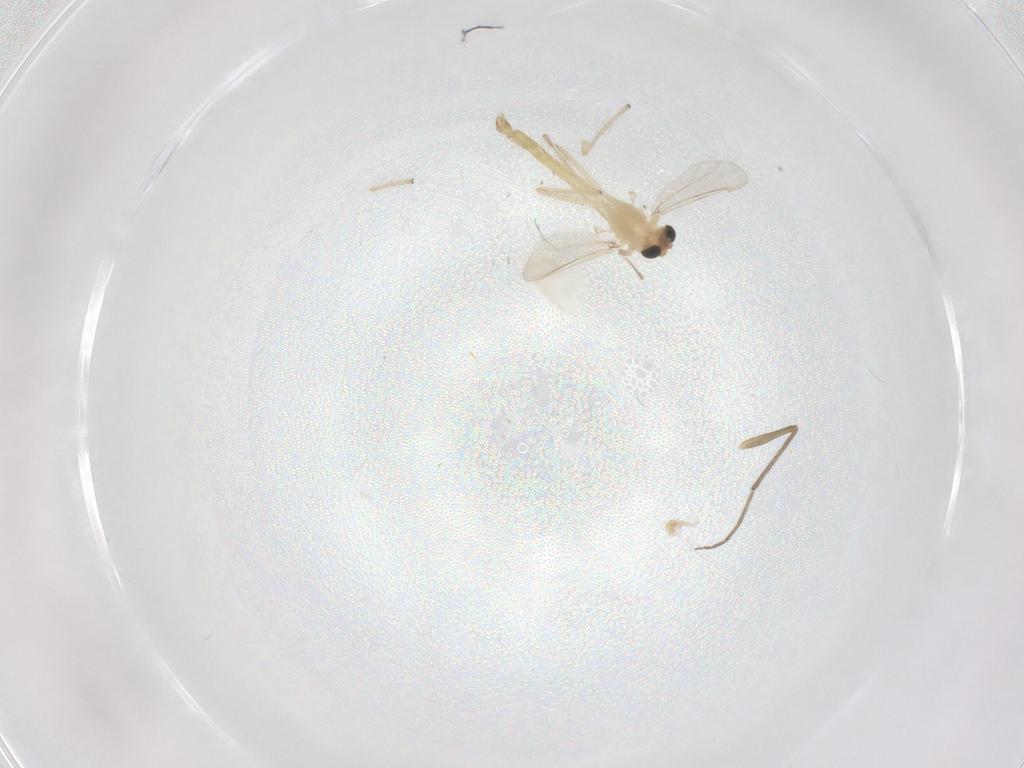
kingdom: Animalia
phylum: Arthropoda
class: Insecta
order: Diptera
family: Chironomidae
